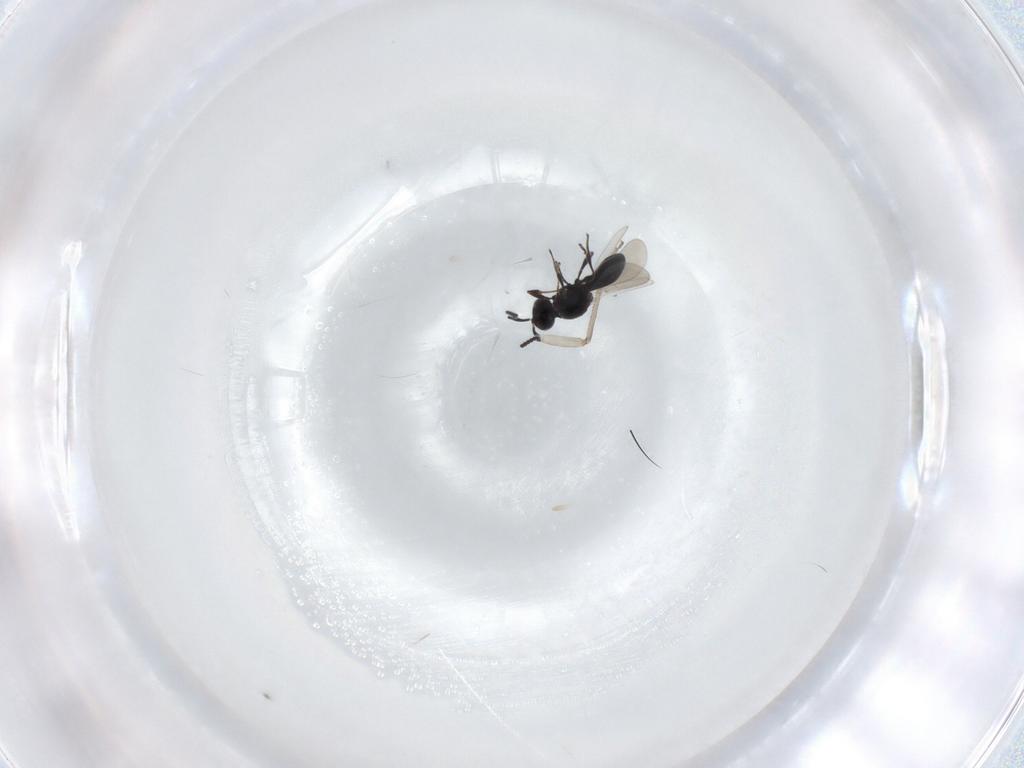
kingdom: Animalia
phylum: Arthropoda
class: Insecta
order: Hymenoptera
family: Platygastridae
